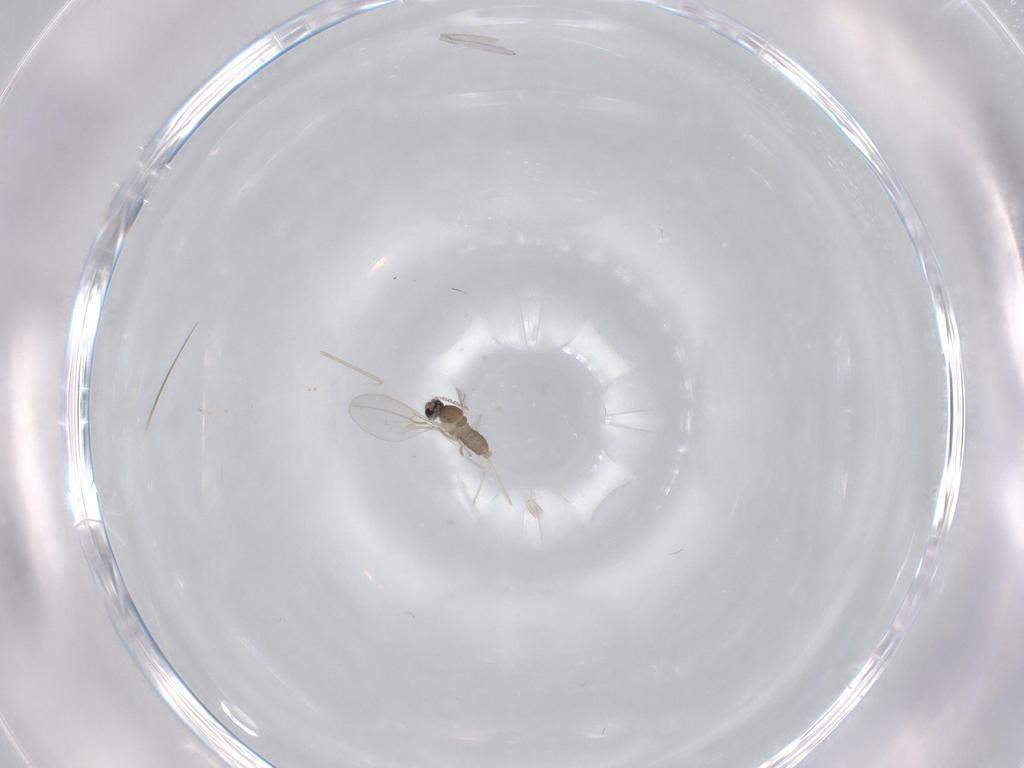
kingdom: Animalia
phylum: Arthropoda
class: Insecta
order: Diptera
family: Cecidomyiidae
